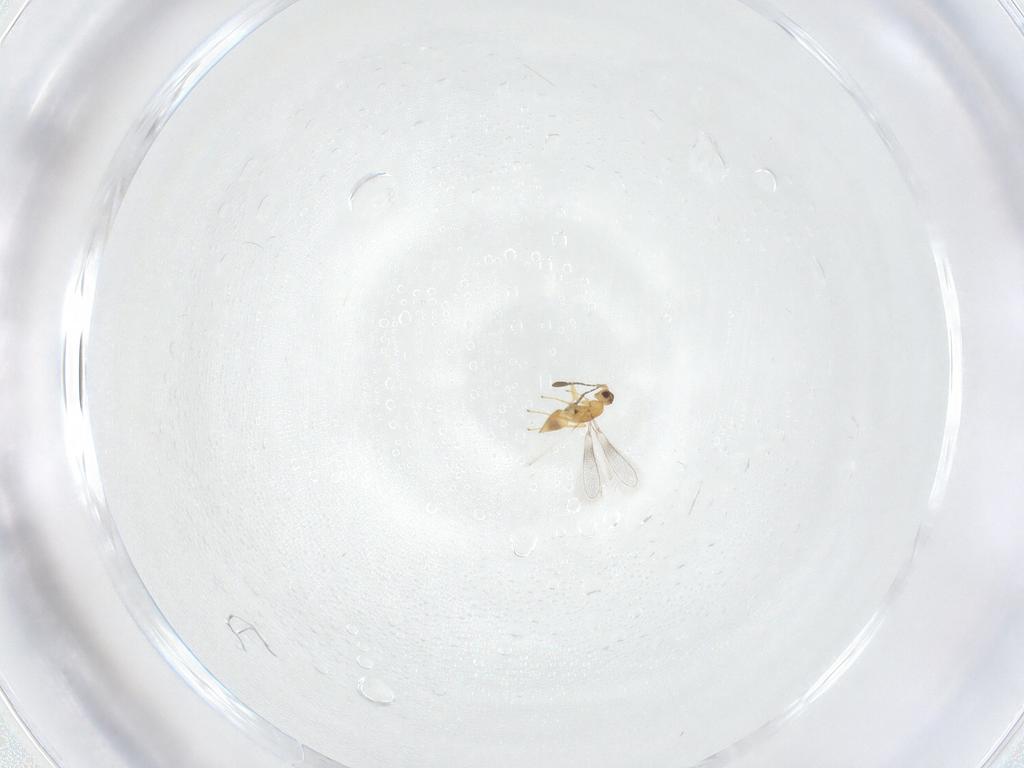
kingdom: Animalia
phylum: Arthropoda
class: Insecta
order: Hymenoptera
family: Mymaridae
